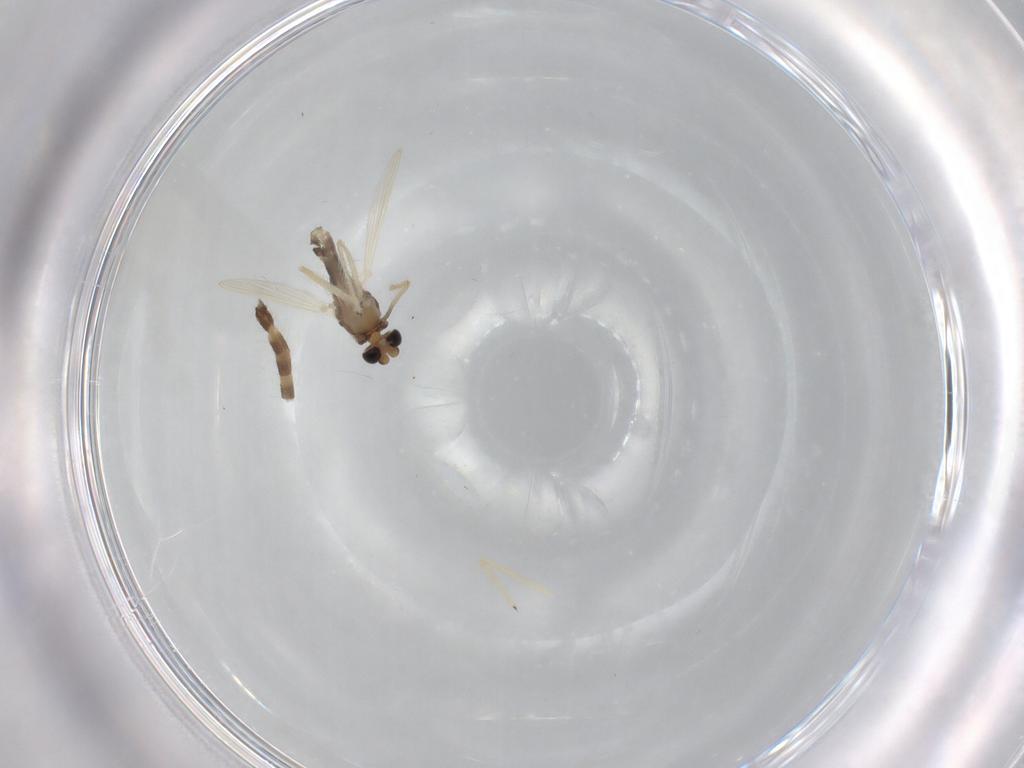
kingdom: Animalia
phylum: Arthropoda
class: Insecta
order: Diptera
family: Chironomidae
